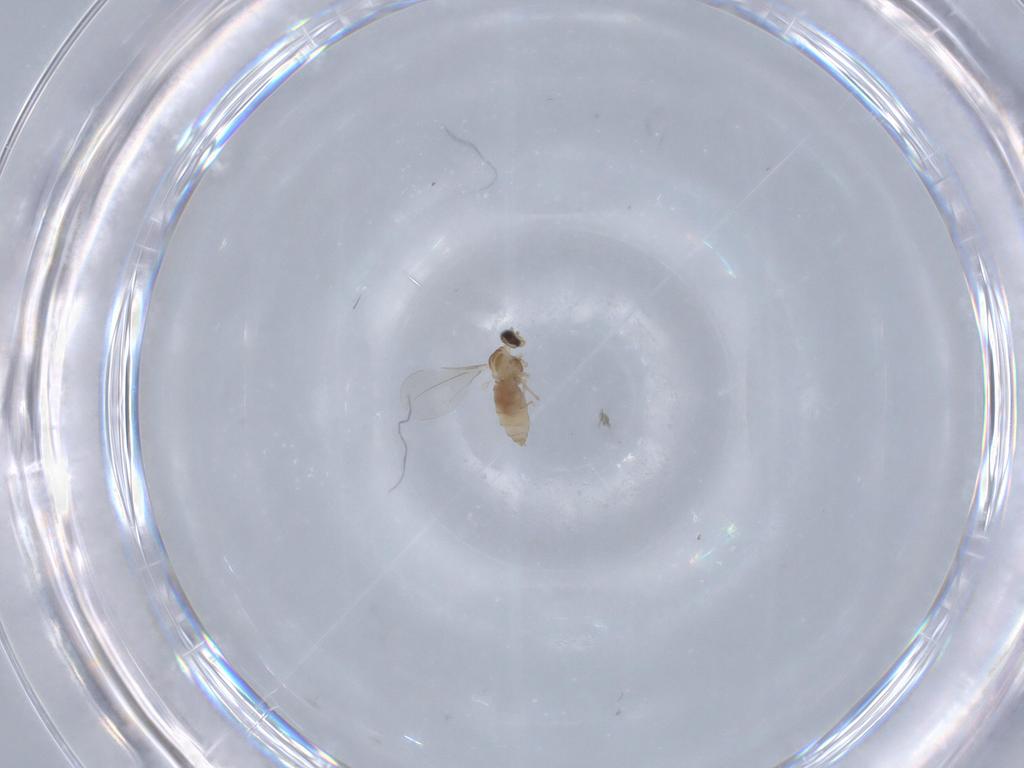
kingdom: Animalia
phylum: Arthropoda
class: Insecta
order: Diptera
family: Cecidomyiidae
